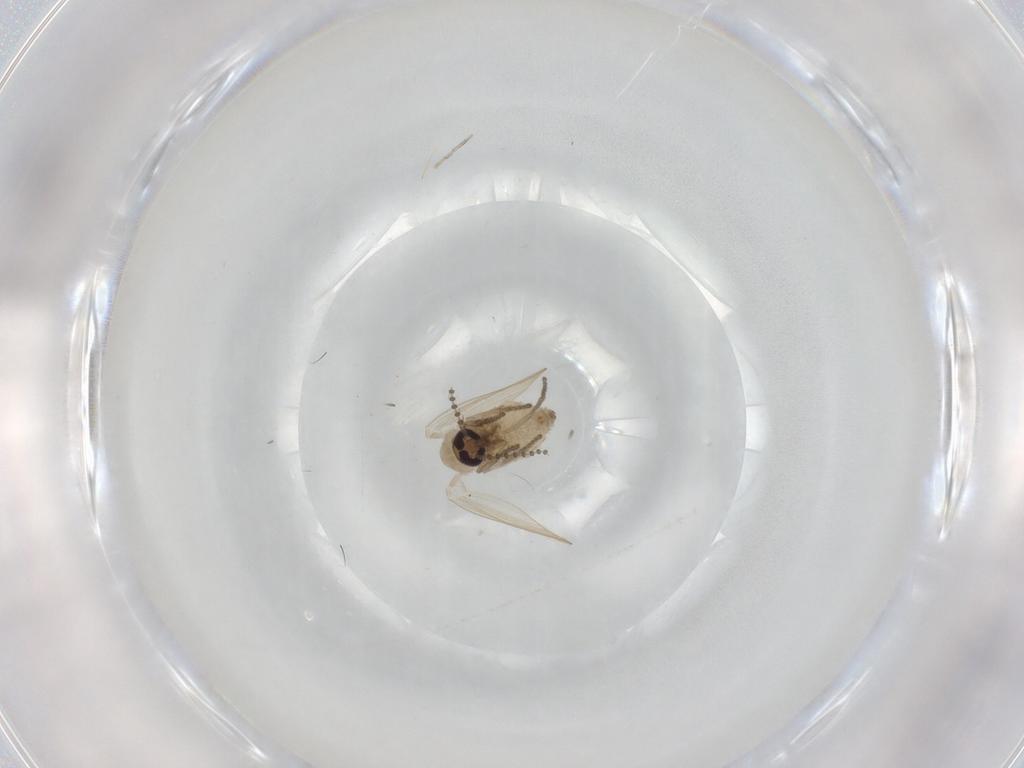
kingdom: Animalia
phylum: Arthropoda
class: Insecta
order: Diptera
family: Psychodidae
